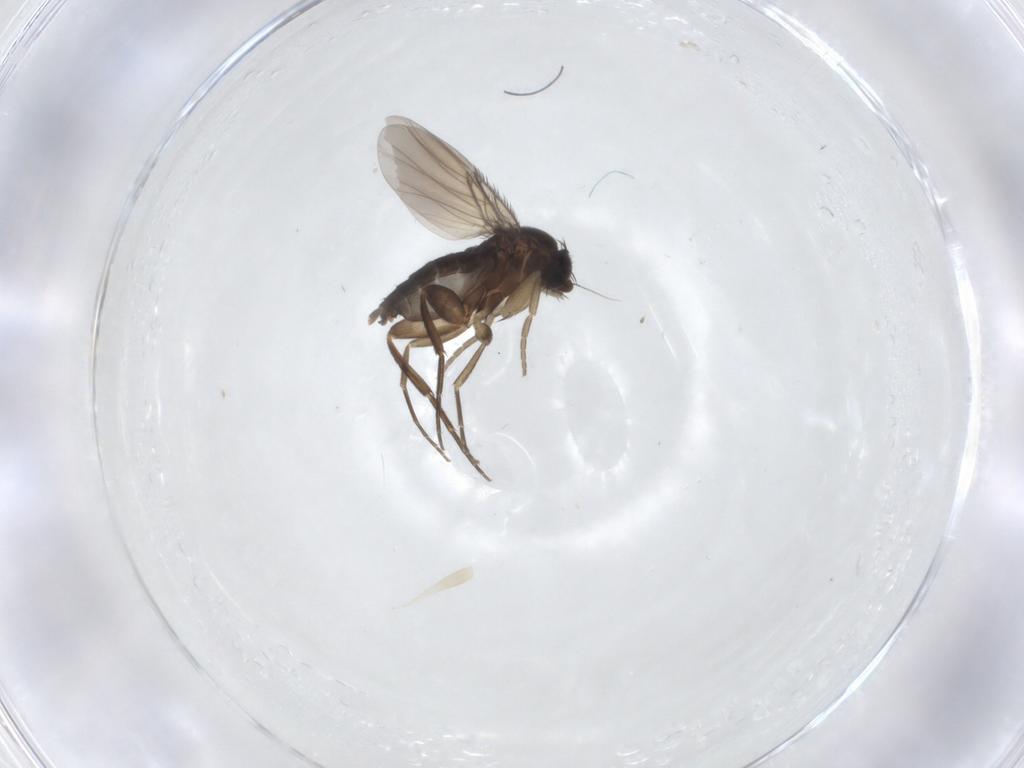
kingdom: Animalia
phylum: Arthropoda
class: Insecta
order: Diptera
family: Phoridae
